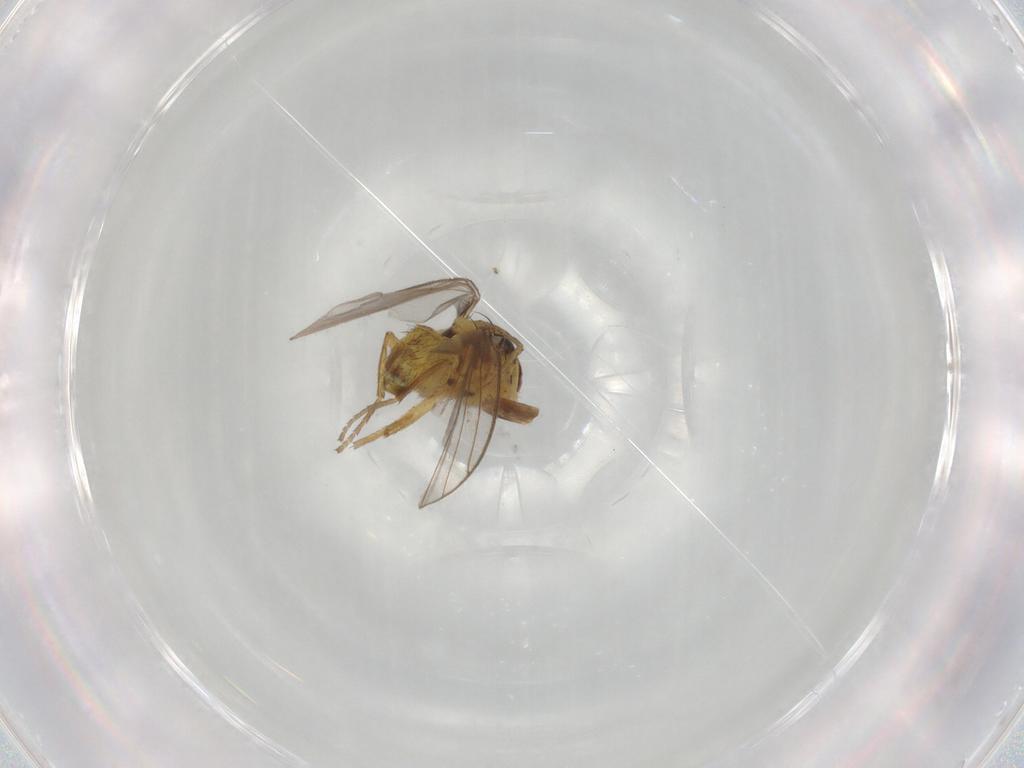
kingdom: Animalia
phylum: Arthropoda
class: Insecta
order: Diptera
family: Agromyzidae
